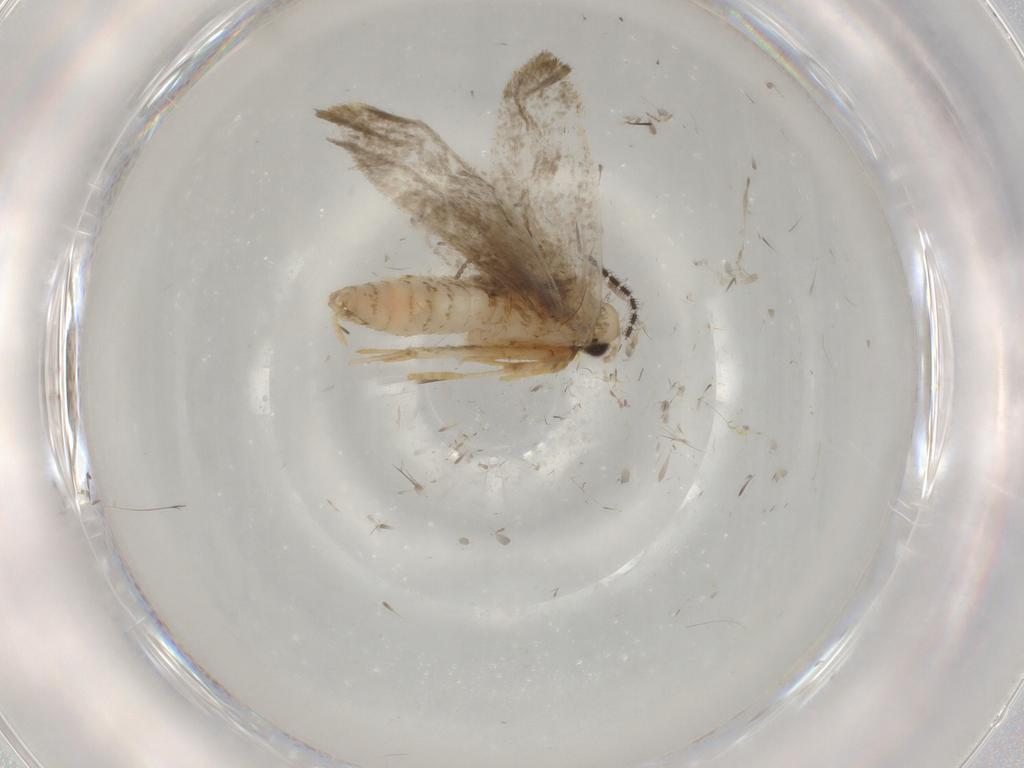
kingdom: Animalia
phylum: Arthropoda
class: Insecta
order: Lepidoptera
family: Psychidae
